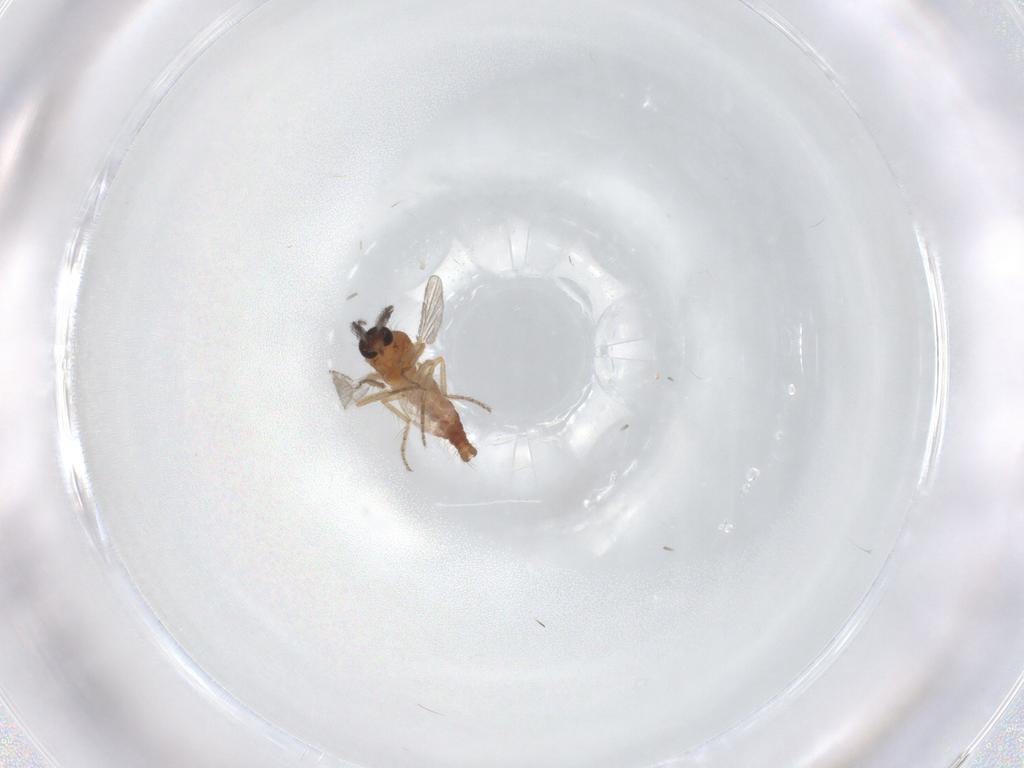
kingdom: Animalia
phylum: Arthropoda
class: Insecta
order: Diptera
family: Ceratopogonidae
